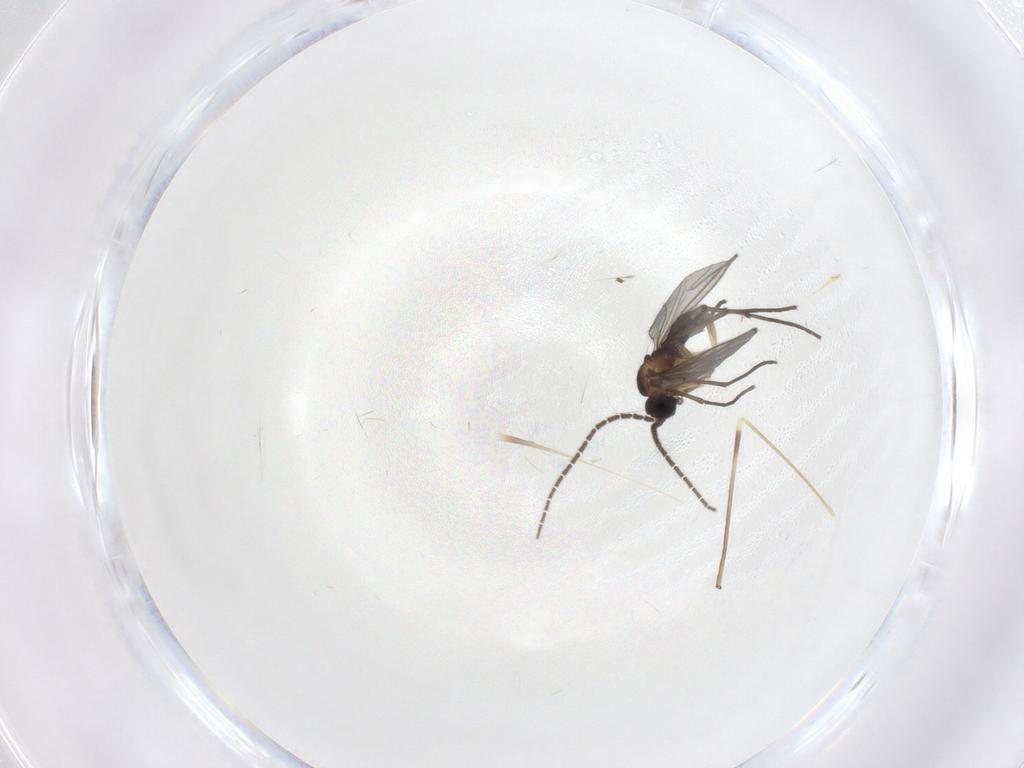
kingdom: Animalia
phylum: Arthropoda
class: Insecta
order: Diptera
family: Limoniidae
